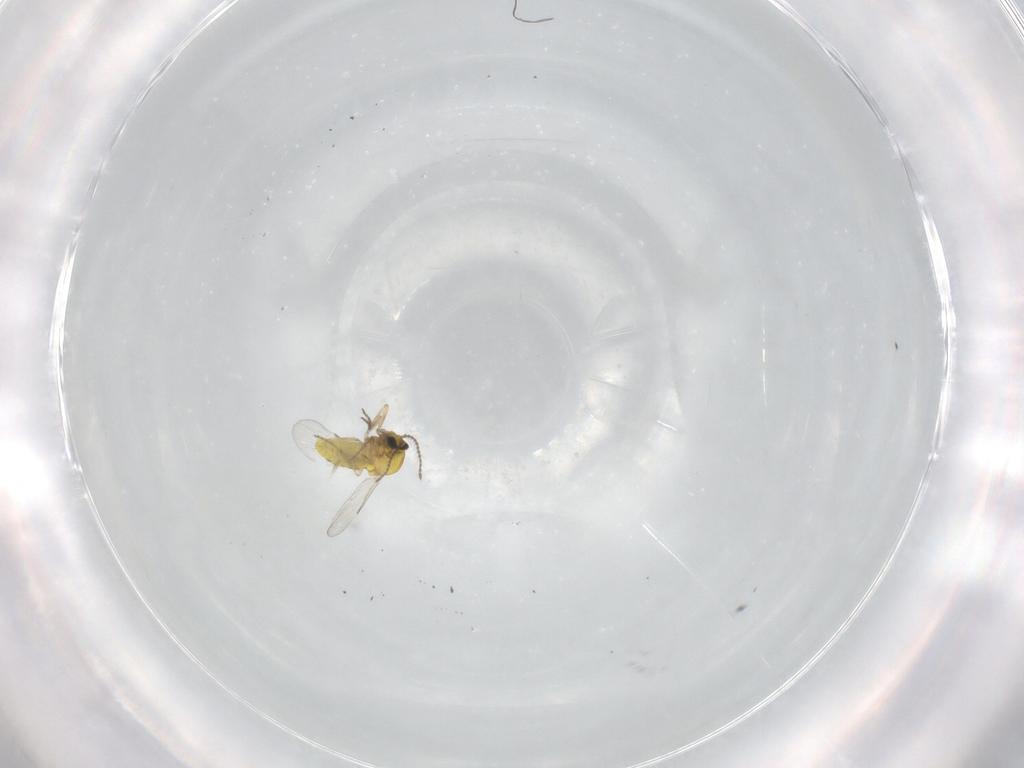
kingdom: Animalia
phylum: Arthropoda
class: Insecta
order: Diptera
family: Ceratopogonidae
